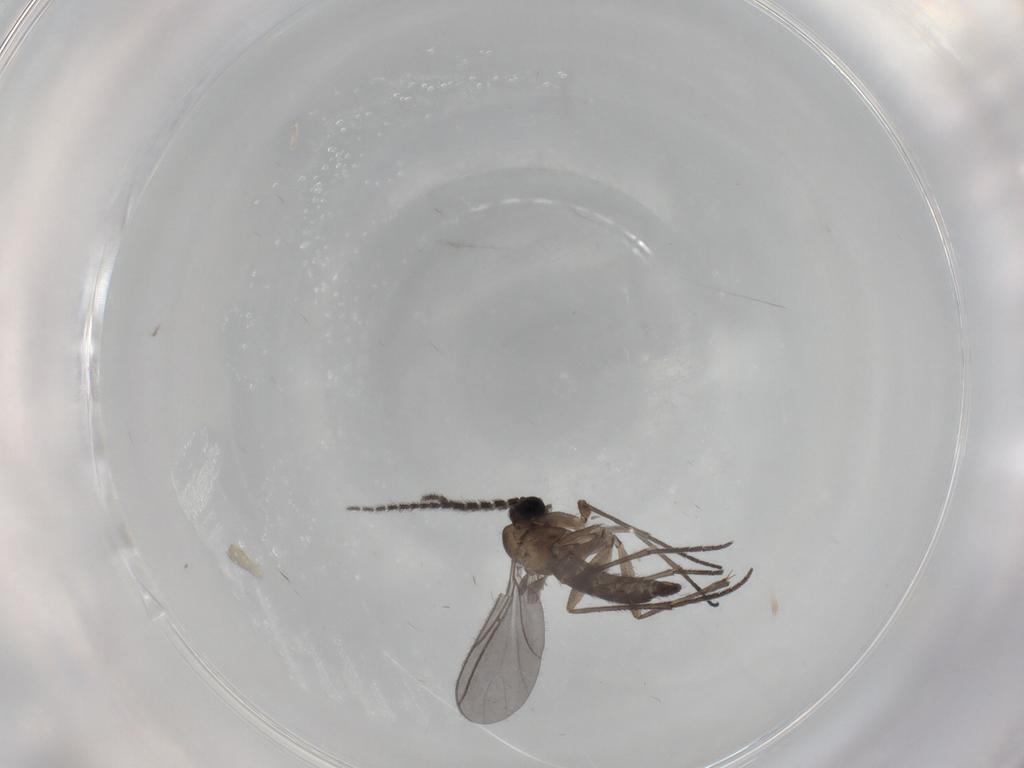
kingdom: Animalia
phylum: Arthropoda
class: Insecta
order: Diptera
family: Sciaridae
